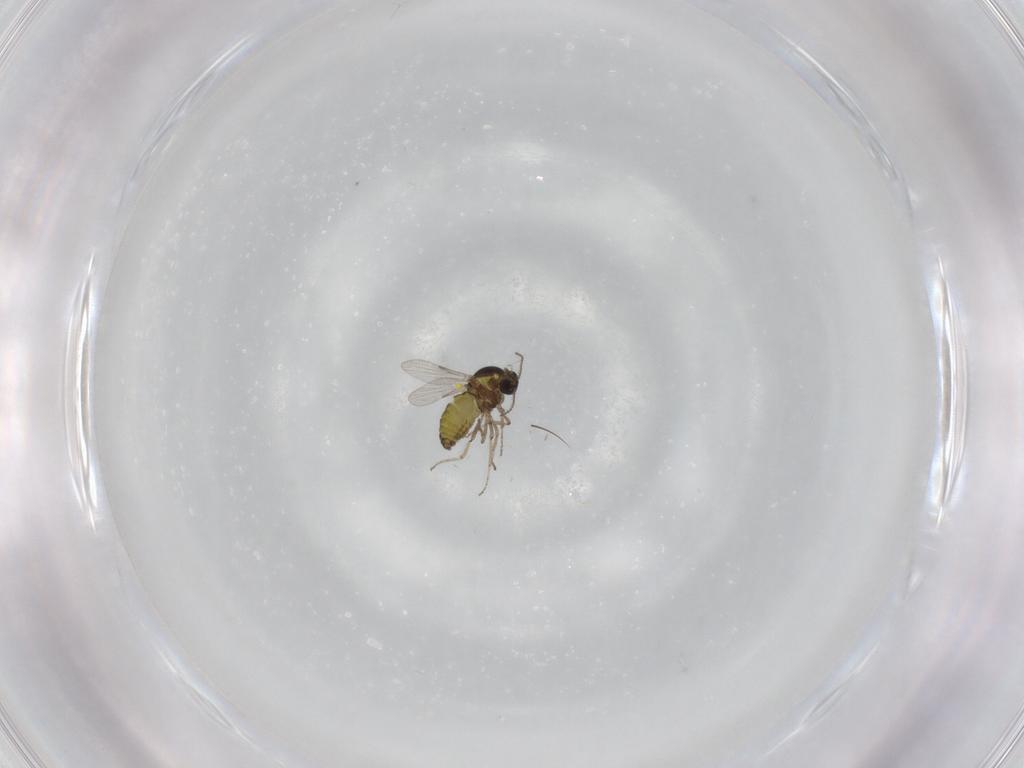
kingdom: Animalia
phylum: Arthropoda
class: Insecta
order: Diptera
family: Ceratopogonidae
